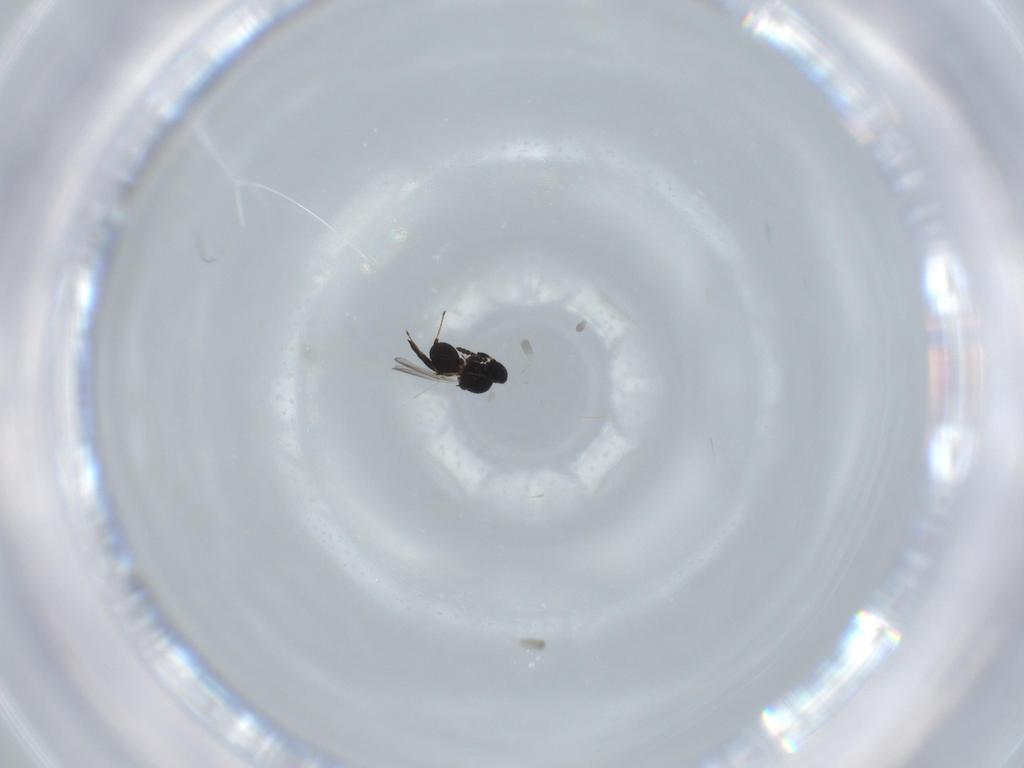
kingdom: Animalia
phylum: Arthropoda
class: Insecta
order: Hymenoptera
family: Platygastridae
